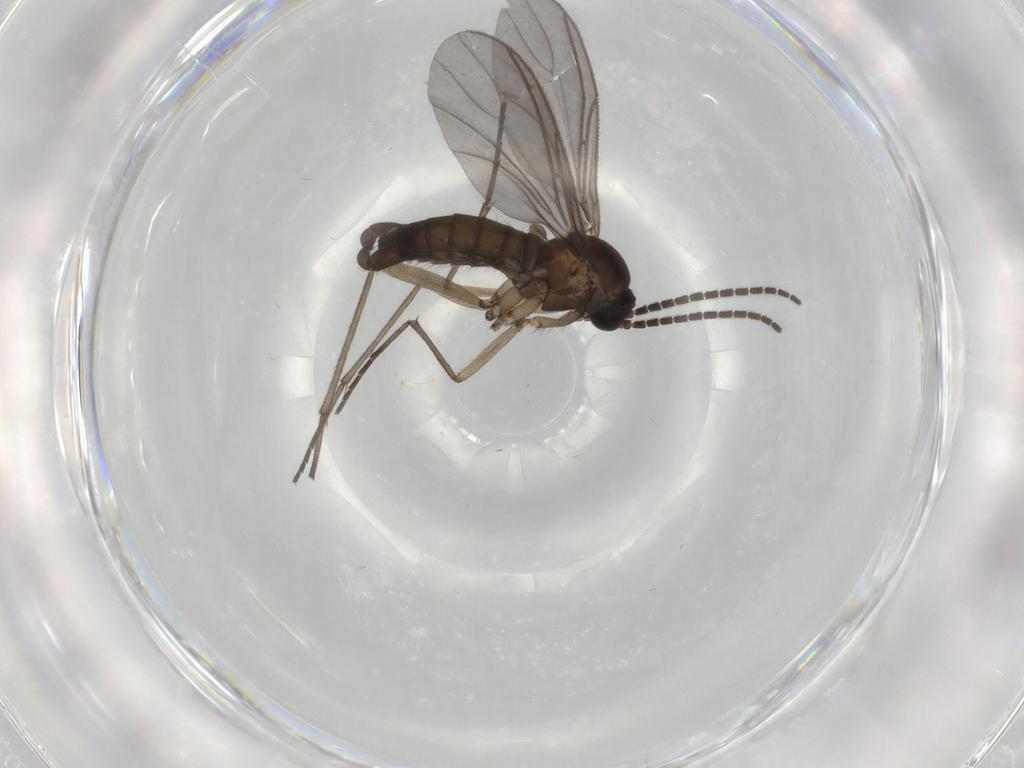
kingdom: Animalia
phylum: Arthropoda
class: Insecta
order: Diptera
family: Sciaridae
